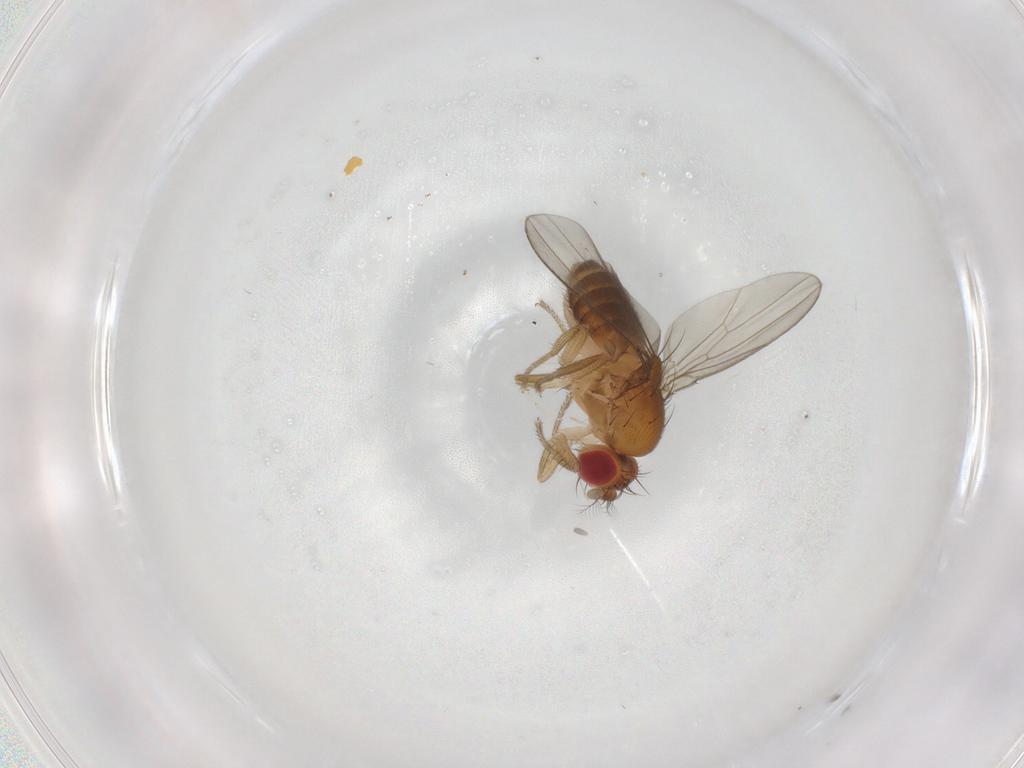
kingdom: Animalia
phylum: Arthropoda
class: Insecta
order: Diptera
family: Drosophilidae
